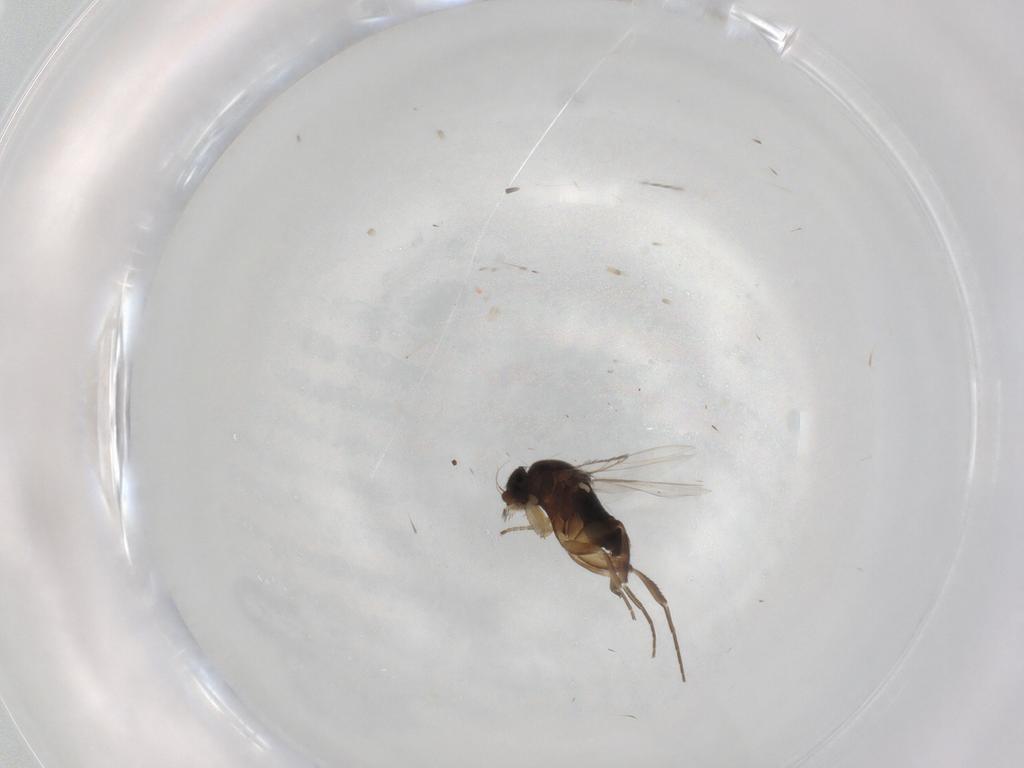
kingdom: Animalia
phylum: Arthropoda
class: Insecta
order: Diptera
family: Phoridae
